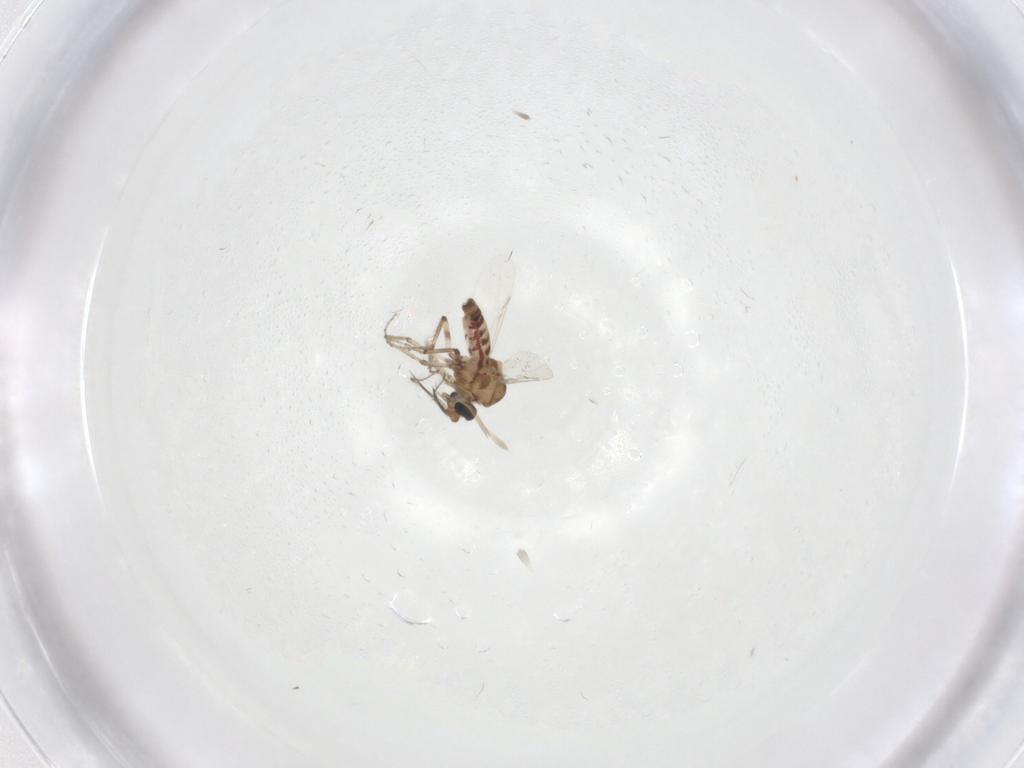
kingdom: Animalia
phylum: Arthropoda
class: Insecta
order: Diptera
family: Ceratopogonidae
